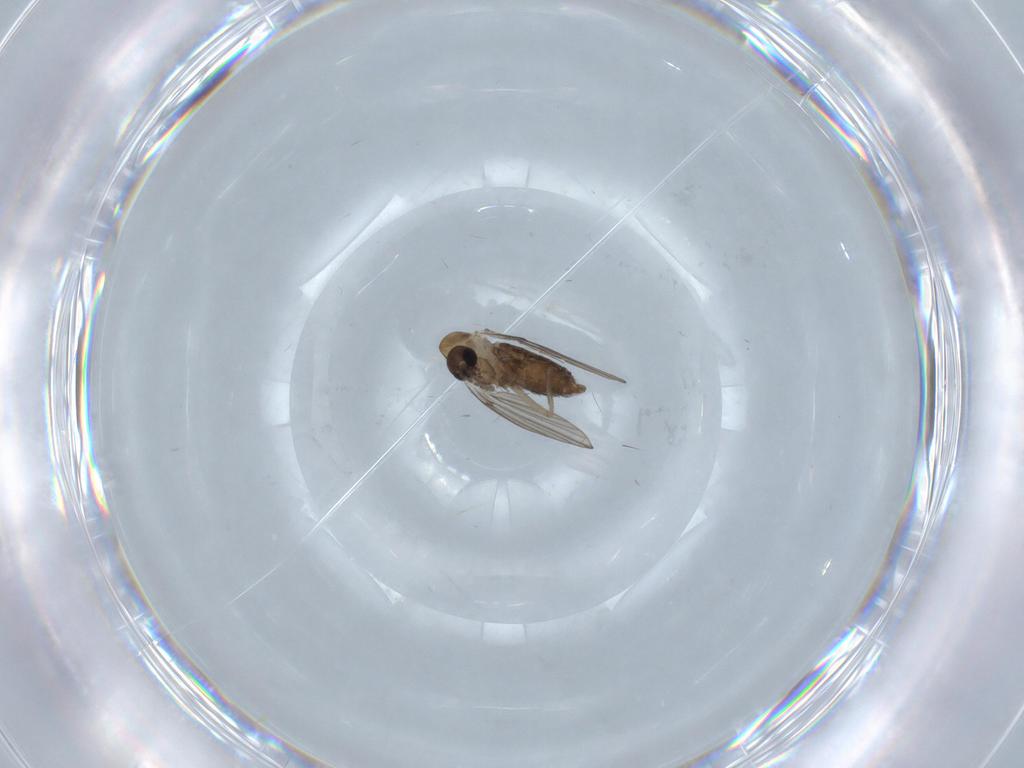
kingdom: Animalia
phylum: Arthropoda
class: Insecta
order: Diptera
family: Psychodidae
